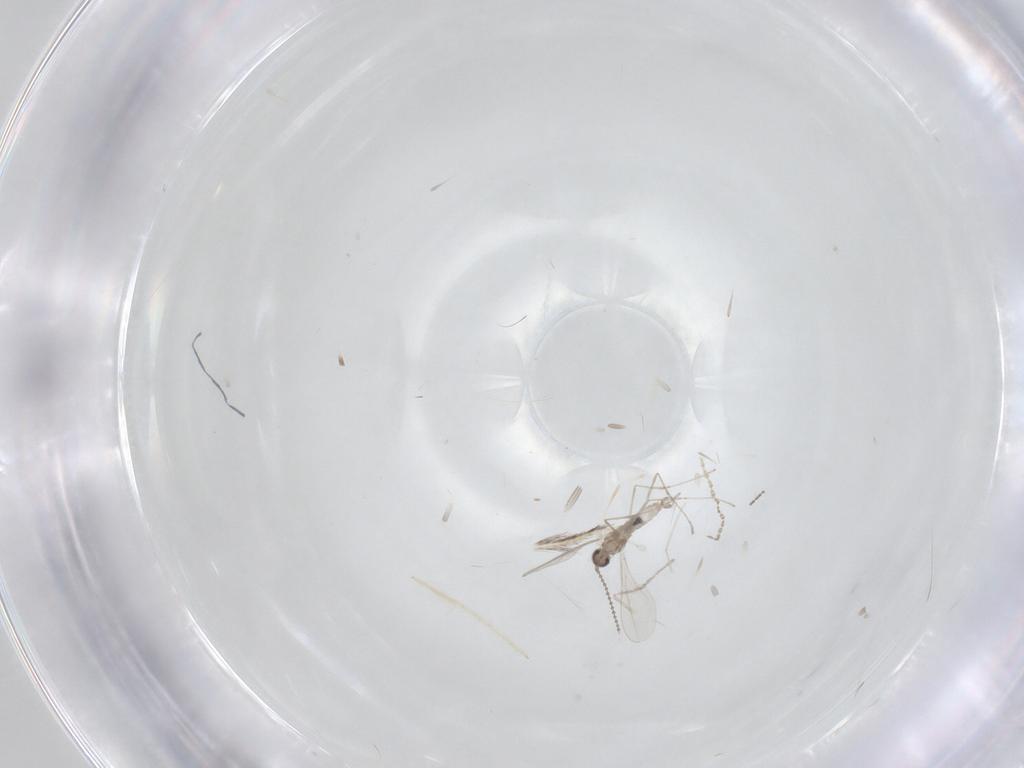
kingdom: Animalia
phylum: Arthropoda
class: Insecta
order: Diptera
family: Cecidomyiidae
